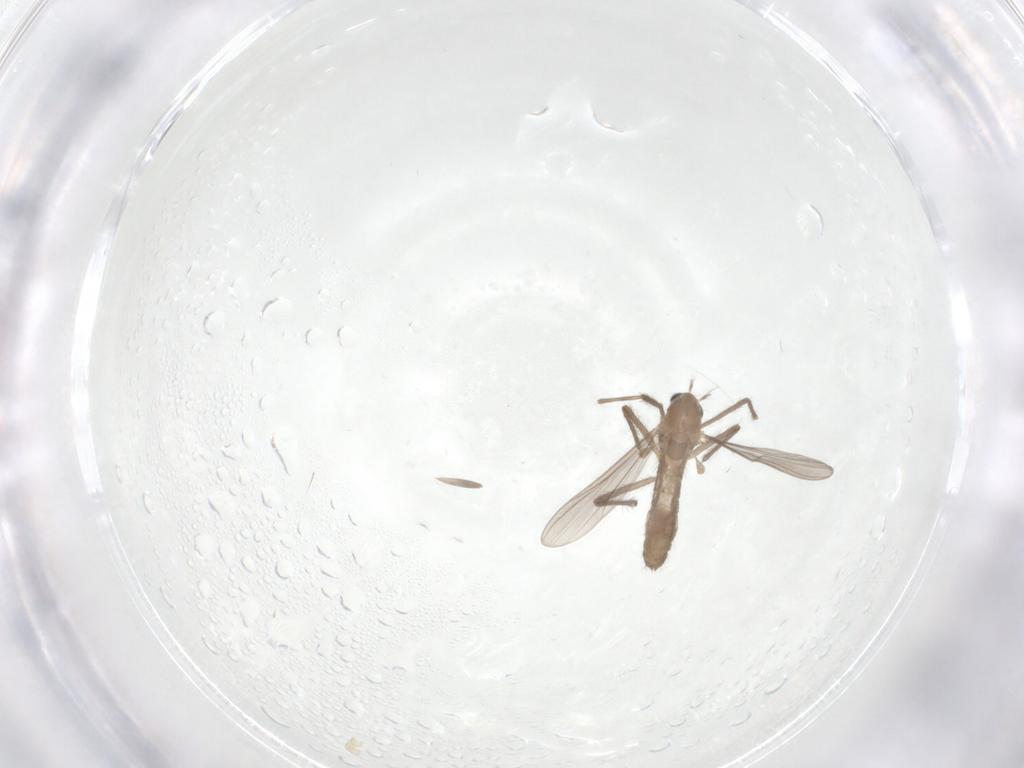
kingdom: Animalia
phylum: Arthropoda
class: Insecta
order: Diptera
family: Chironomidae
